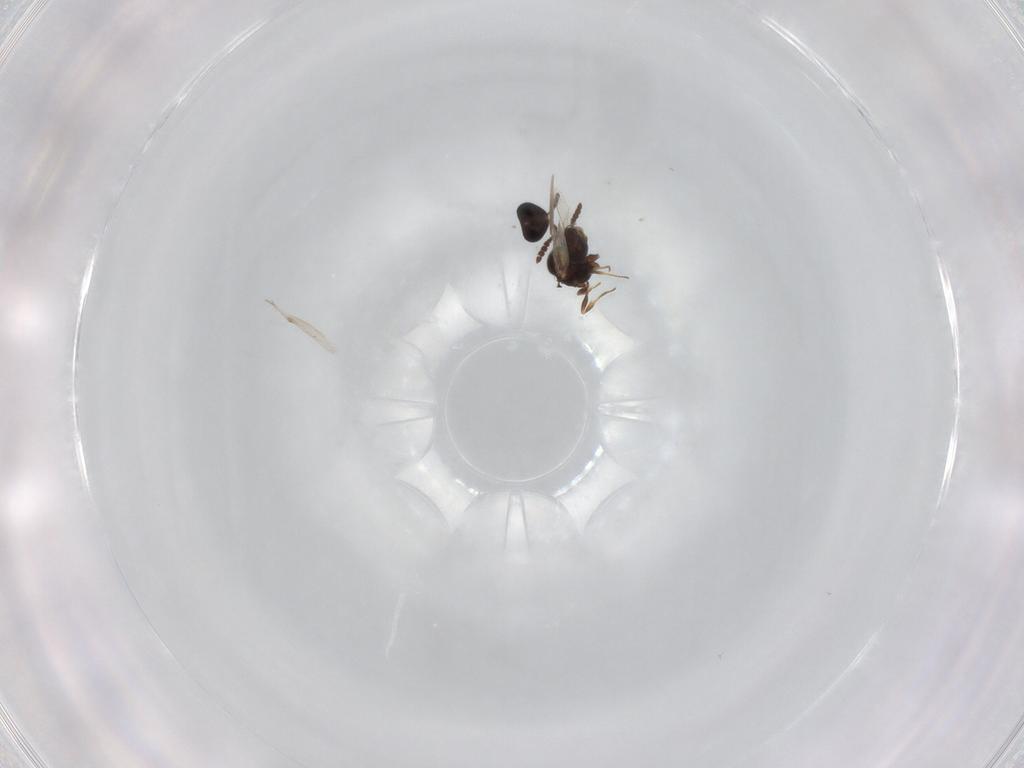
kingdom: Animalia
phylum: Arthropoda
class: Insecta
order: Hymenoptera
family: Scelionidae
